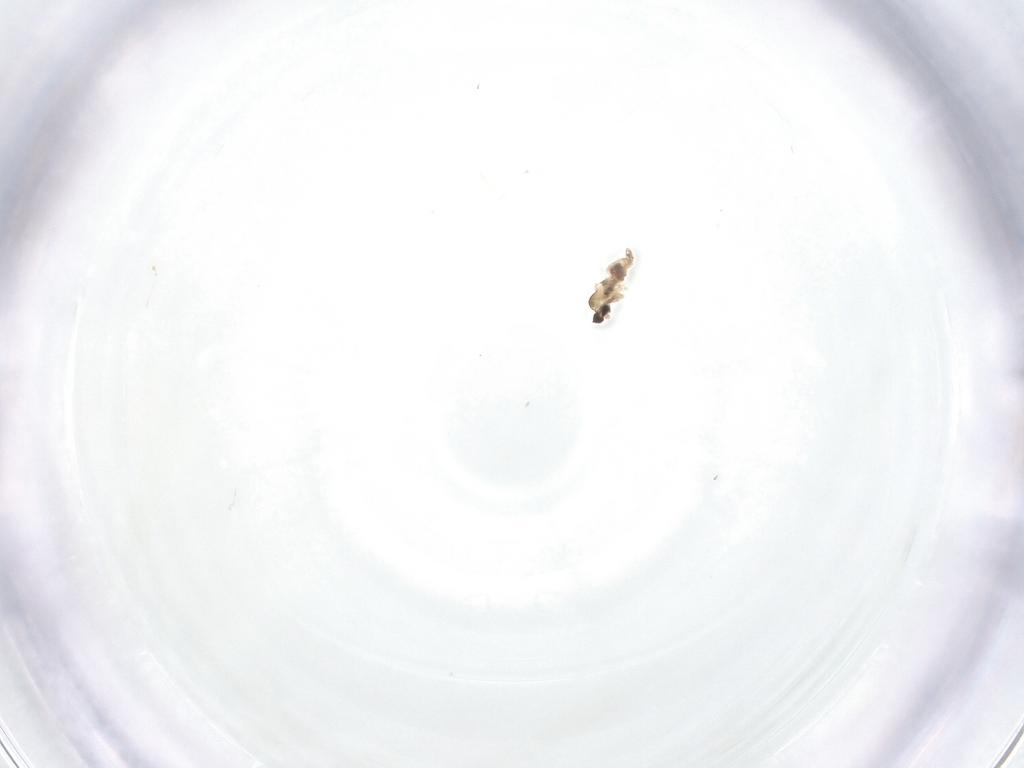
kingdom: Animalia
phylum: Arthropoda
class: Insecta
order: Diptera
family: Cecidomyiidae
